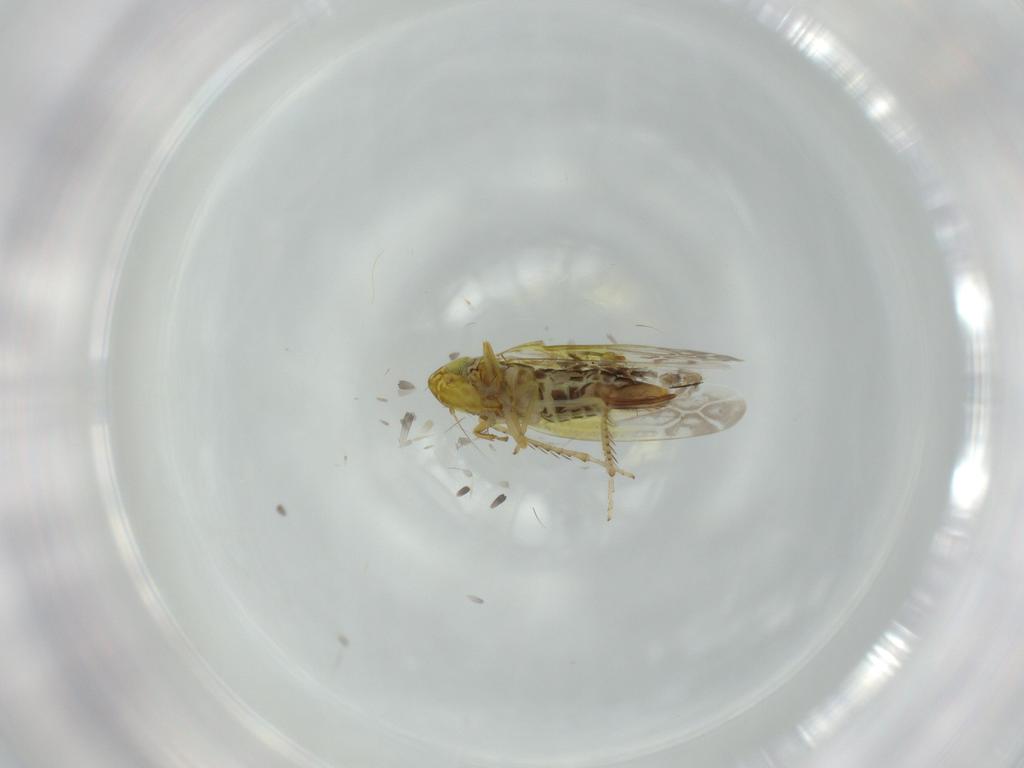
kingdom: Animalia
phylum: Arthropoda
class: Insecta
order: Hemiptera
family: Cicadellidae
